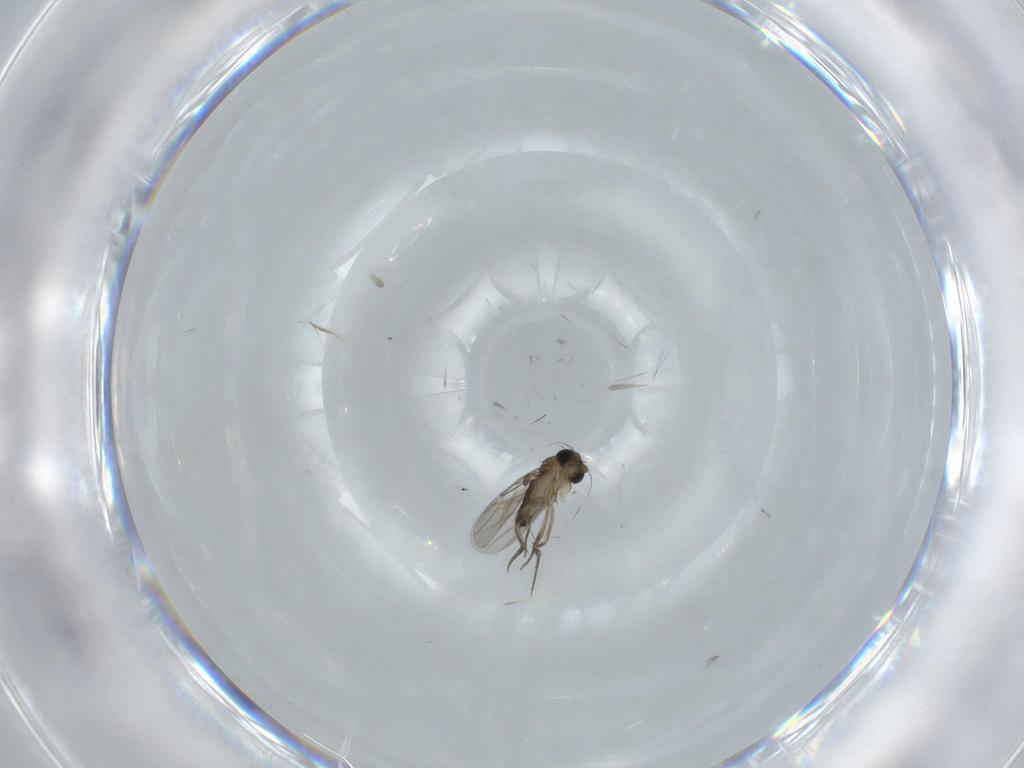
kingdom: Animalia
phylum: Arthropoda
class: Insecta
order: Diptera
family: Phoridae
